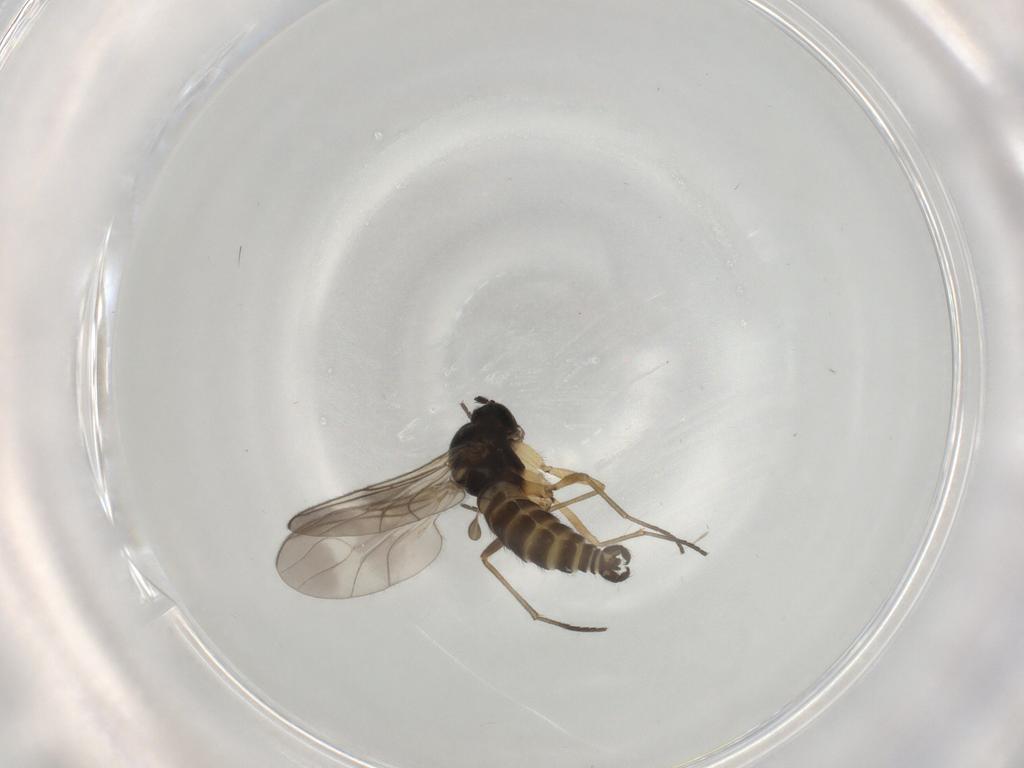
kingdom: Animalia
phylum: Arthropoda
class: Insecta
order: Diptera
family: Sciaridae
